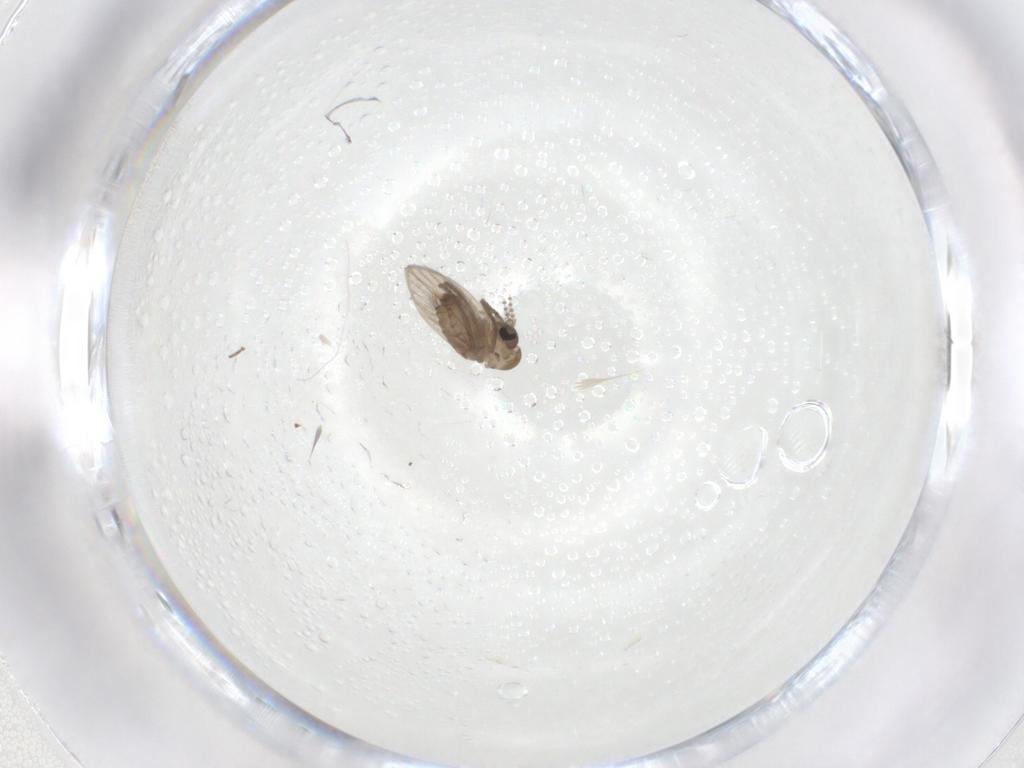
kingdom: Animalia
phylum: Arthropoda
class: Insecta
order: Diptera
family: Psychodidae
